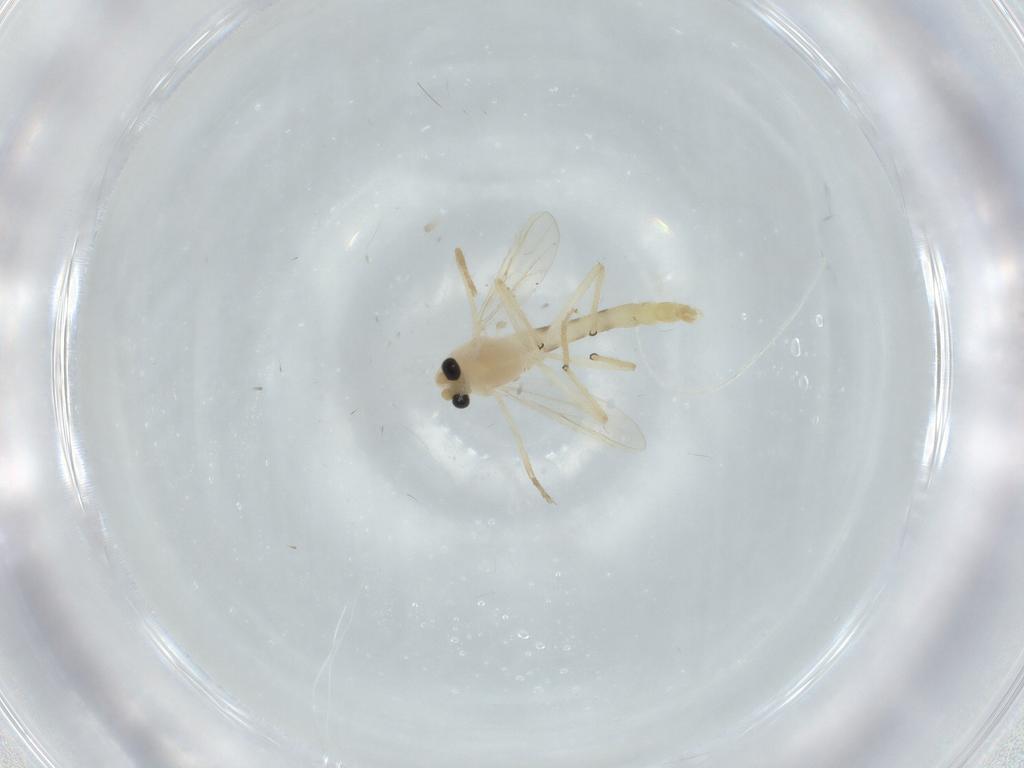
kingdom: Animalia
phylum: Arthropoda
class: Insecta
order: Diptera
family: Chironomidae
